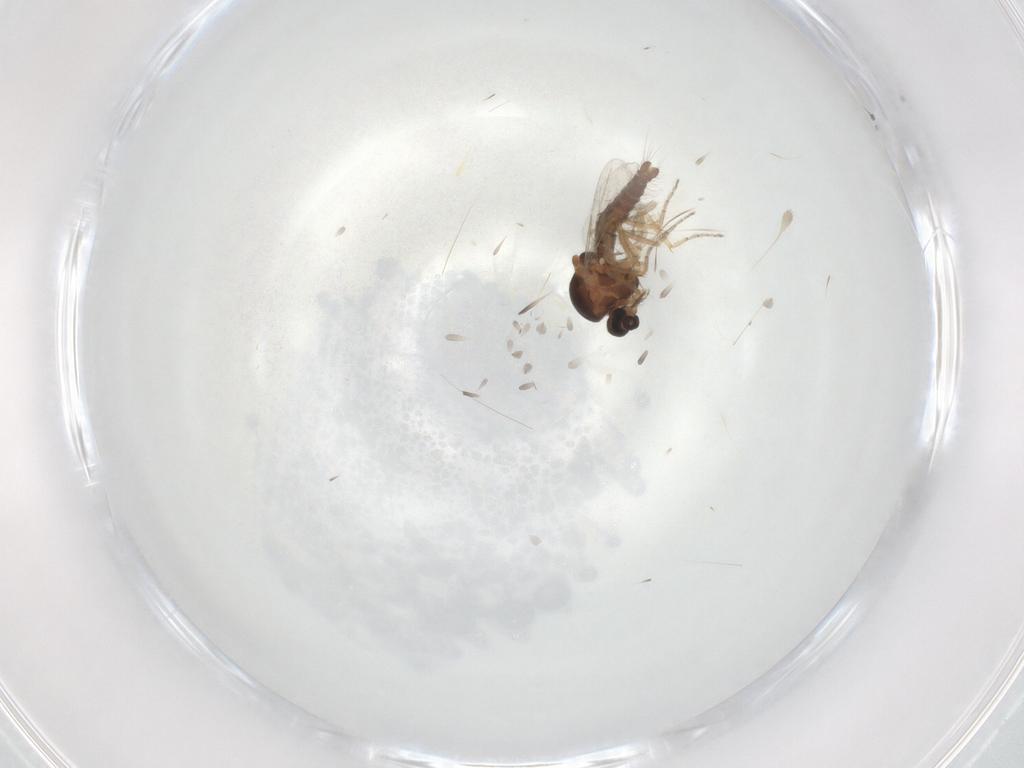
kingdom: Animalia
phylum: Arthropoda
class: Insecta
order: Diptera
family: Ceratopogonidae
